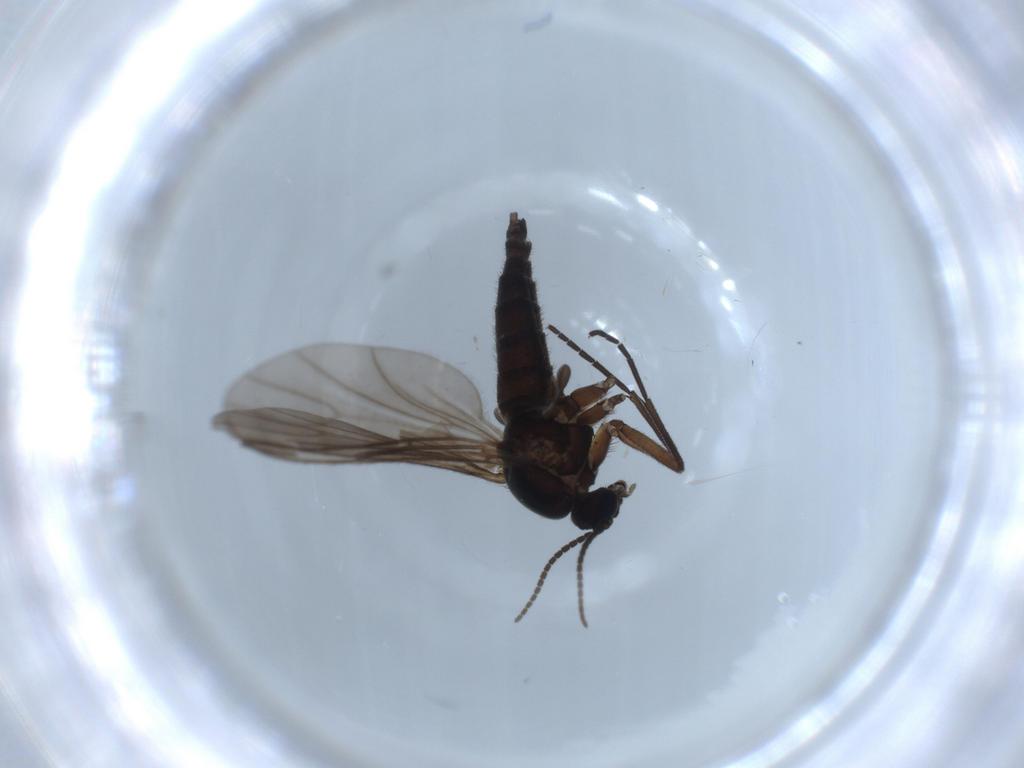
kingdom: Animalia
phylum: Arthropoda
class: Insecta
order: Diptera
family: Sciaridae
